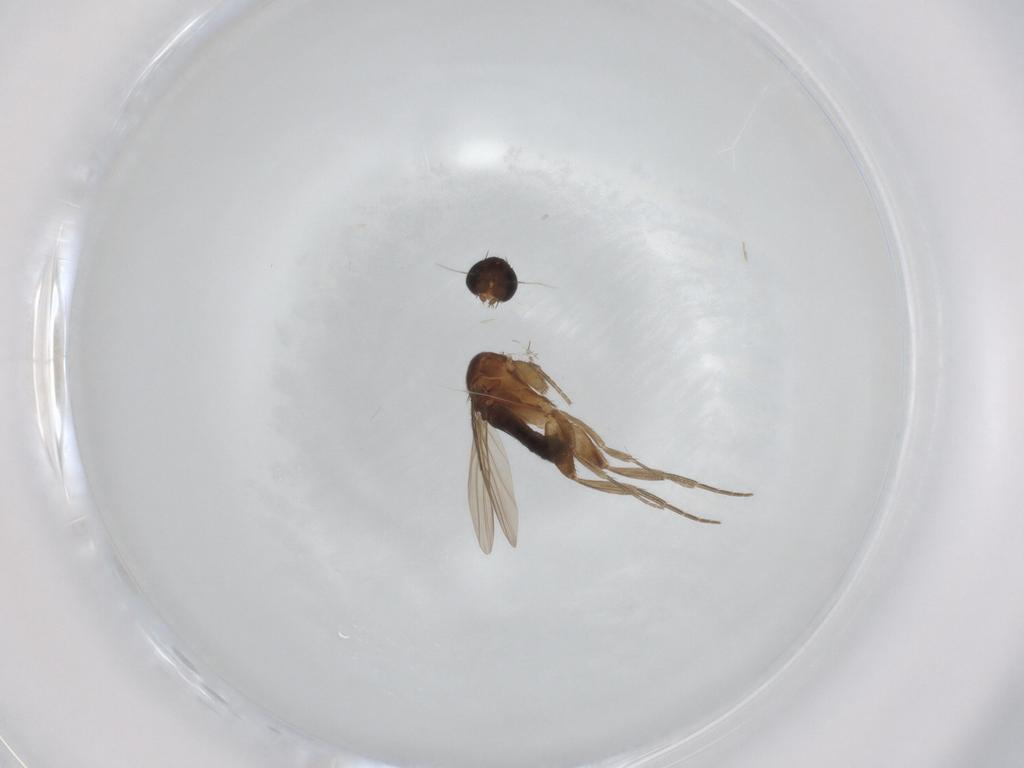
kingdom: Animalia
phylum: Arthropoda
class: Insecta
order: Diptera
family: Phoridae
